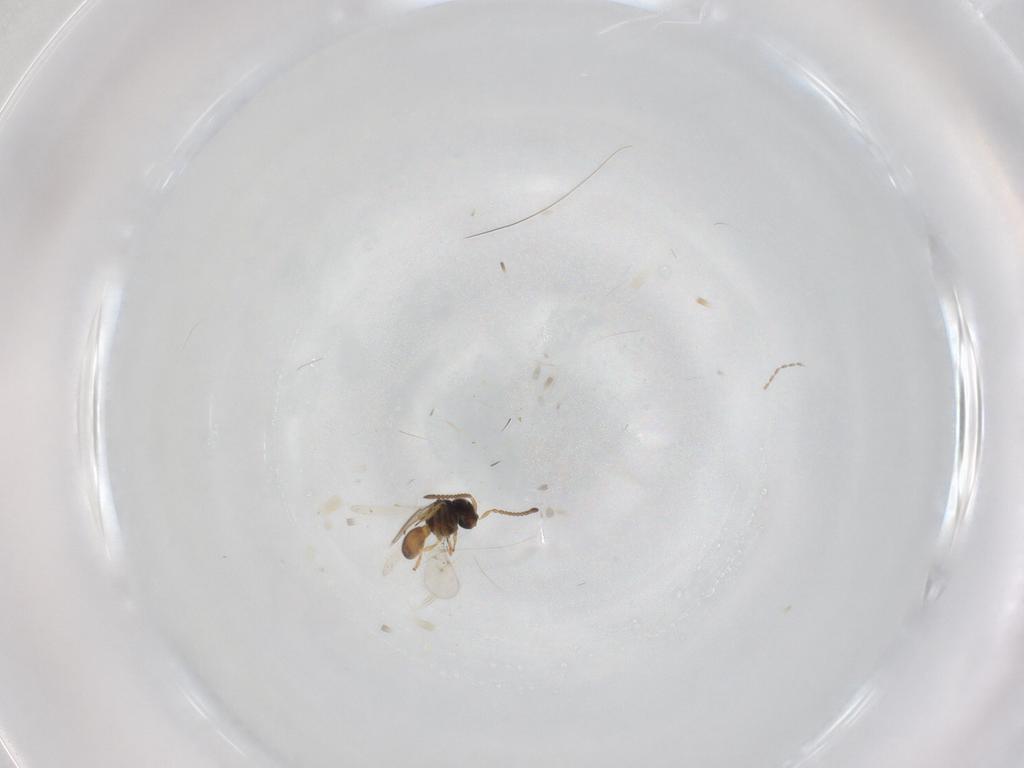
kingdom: Animalia
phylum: Arthropoda
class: Insecta
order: Hymenoptera
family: Scelionidae
